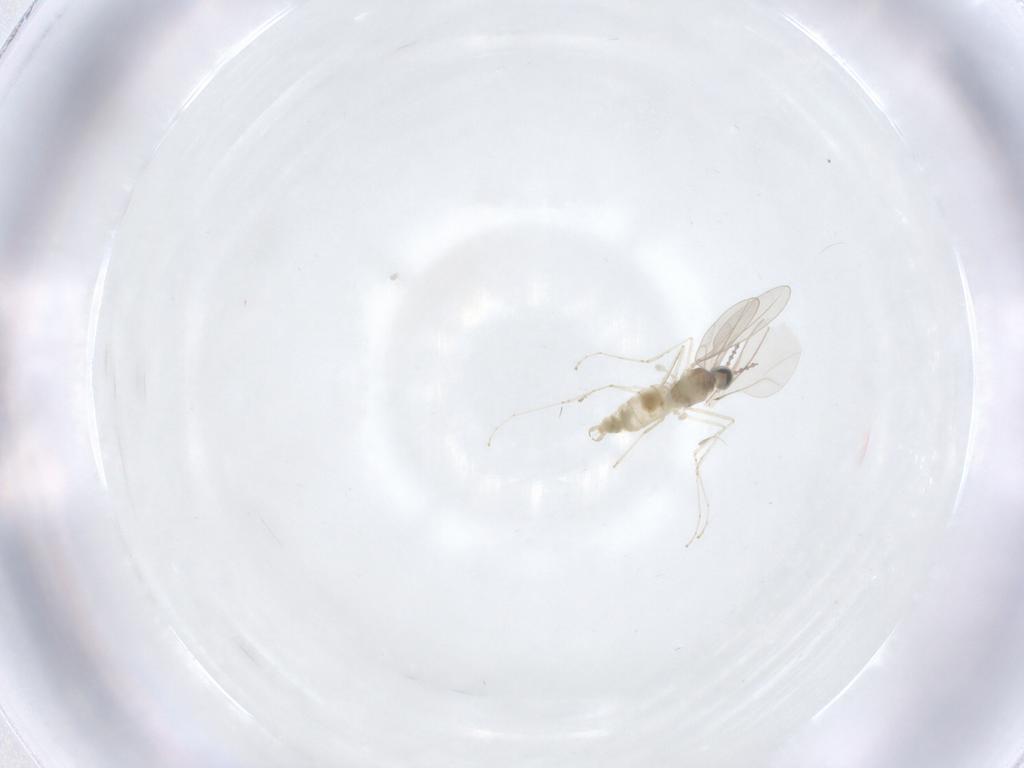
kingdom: Animalia
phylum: Arthropoda
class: Insecta
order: Diptera
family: Cecidomyiidae
